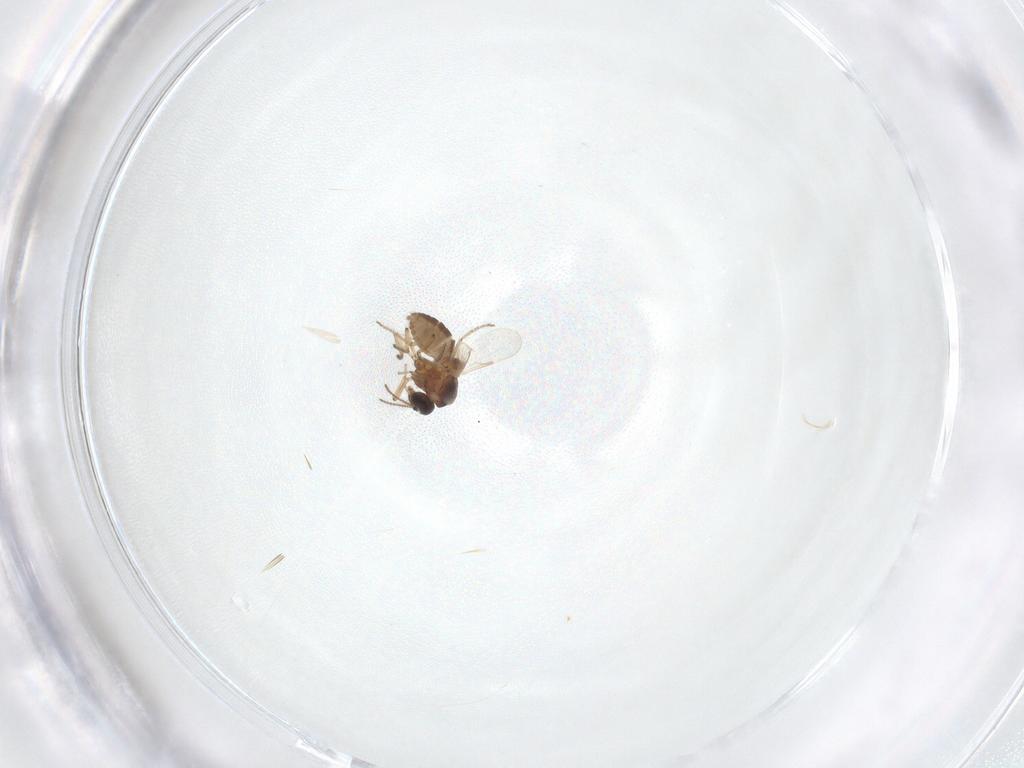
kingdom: Animalia
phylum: Arthropoda
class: Insecta
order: Diptera
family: Ceratopogonidae
